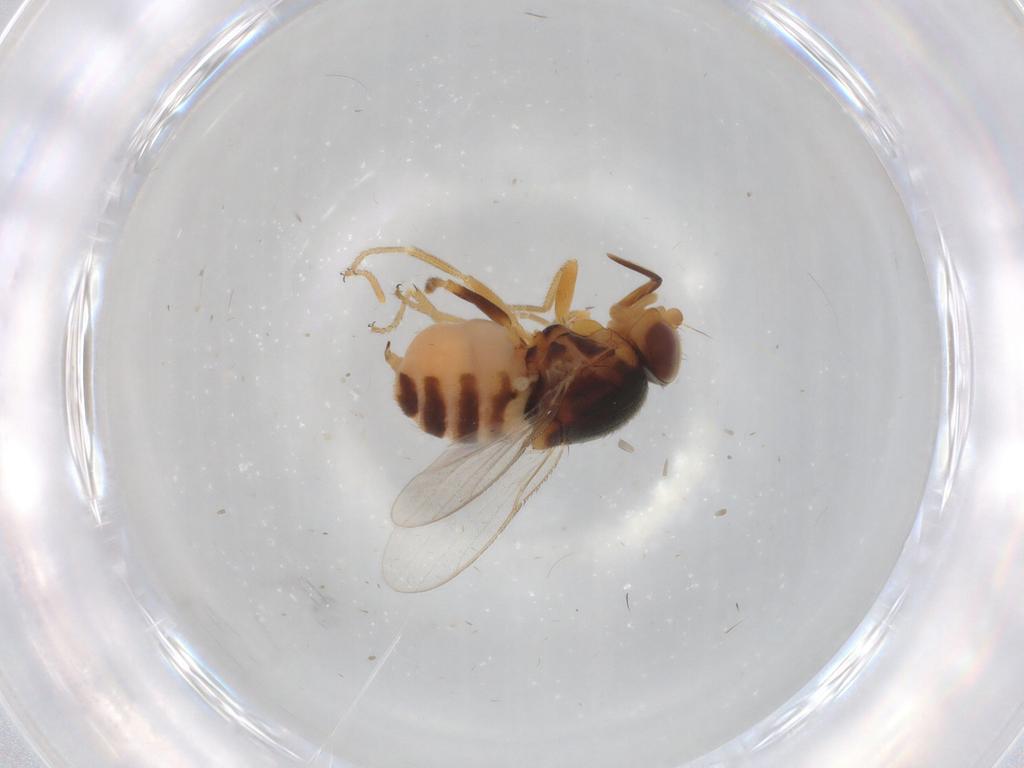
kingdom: Animalia
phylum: Arthropoda
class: Insecta
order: Diptera
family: Chloropidae
